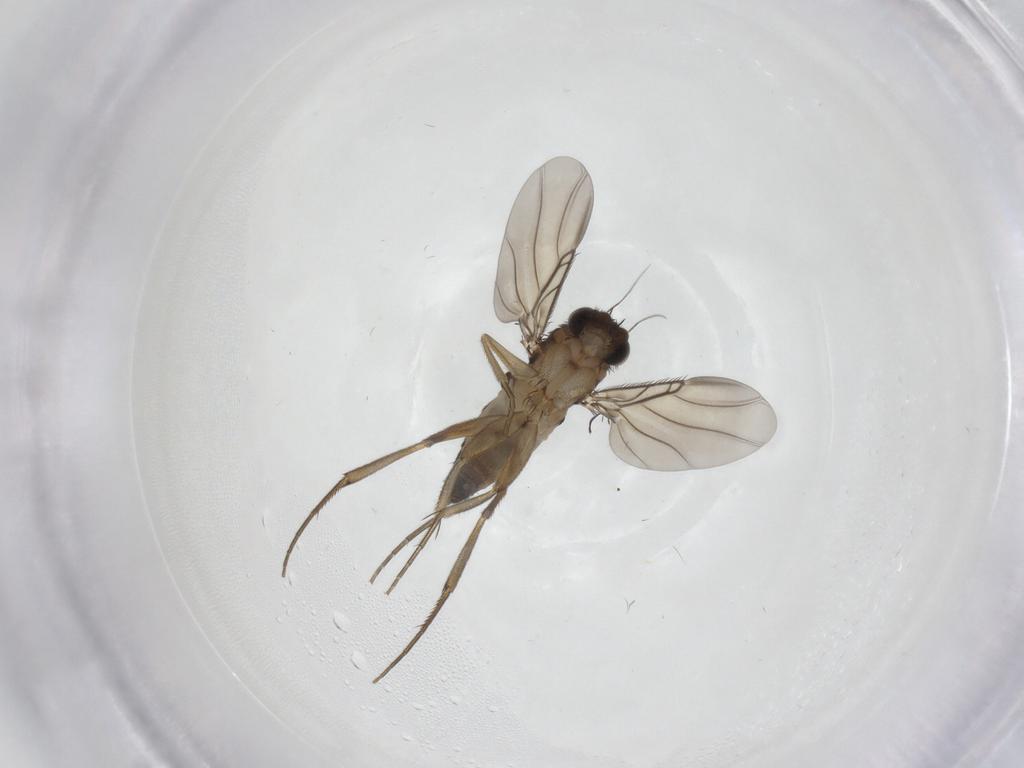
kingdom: Animalia
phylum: Arthropoda
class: Insecta
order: Diptera
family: Phoridae
